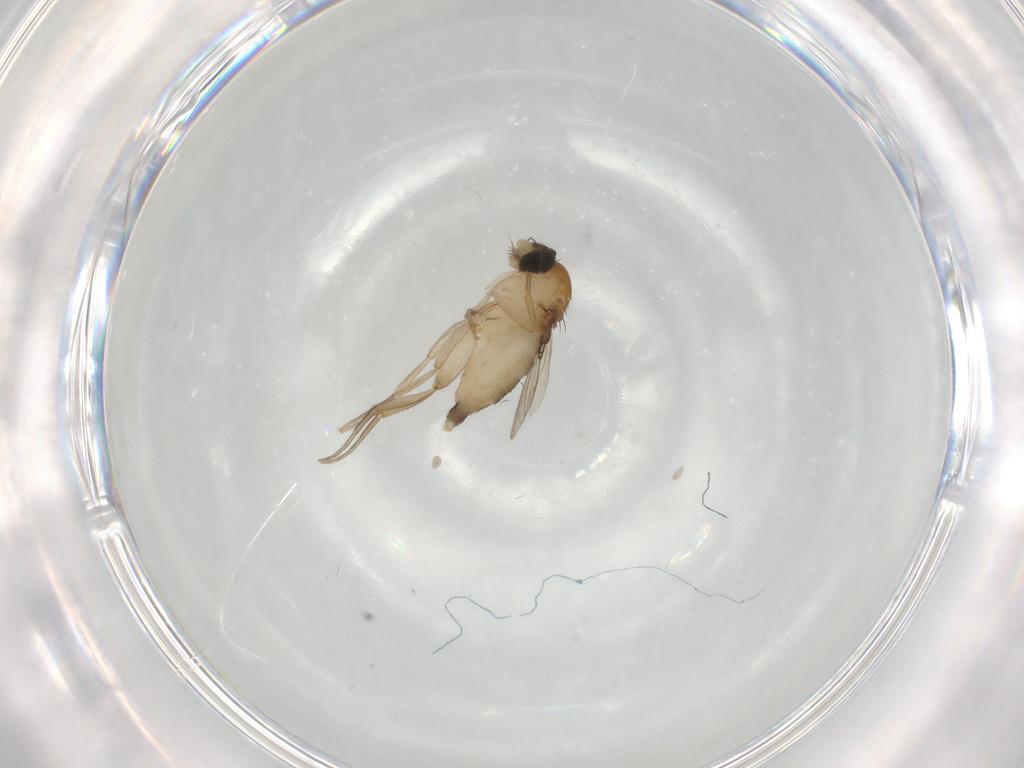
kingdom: Animalia
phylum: Arthropoda
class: Insecta
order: Diptera
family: Phoridae
